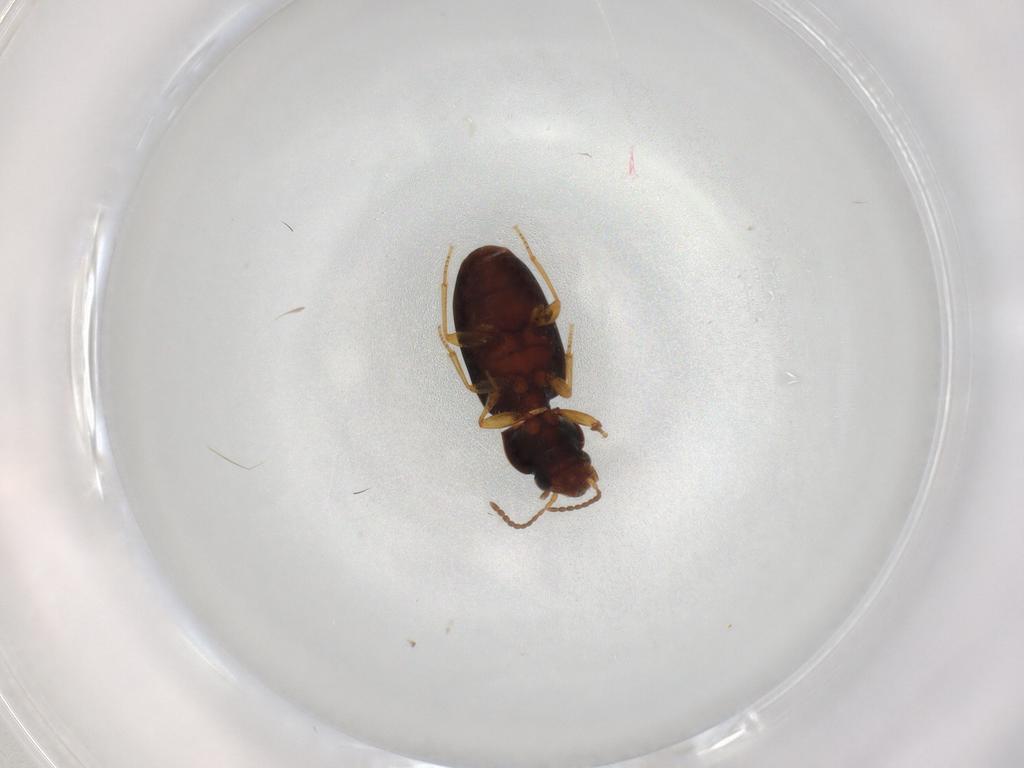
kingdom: Animalia
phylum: Arthropoda
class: Insecta
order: Coleoptera
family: Carabidae
